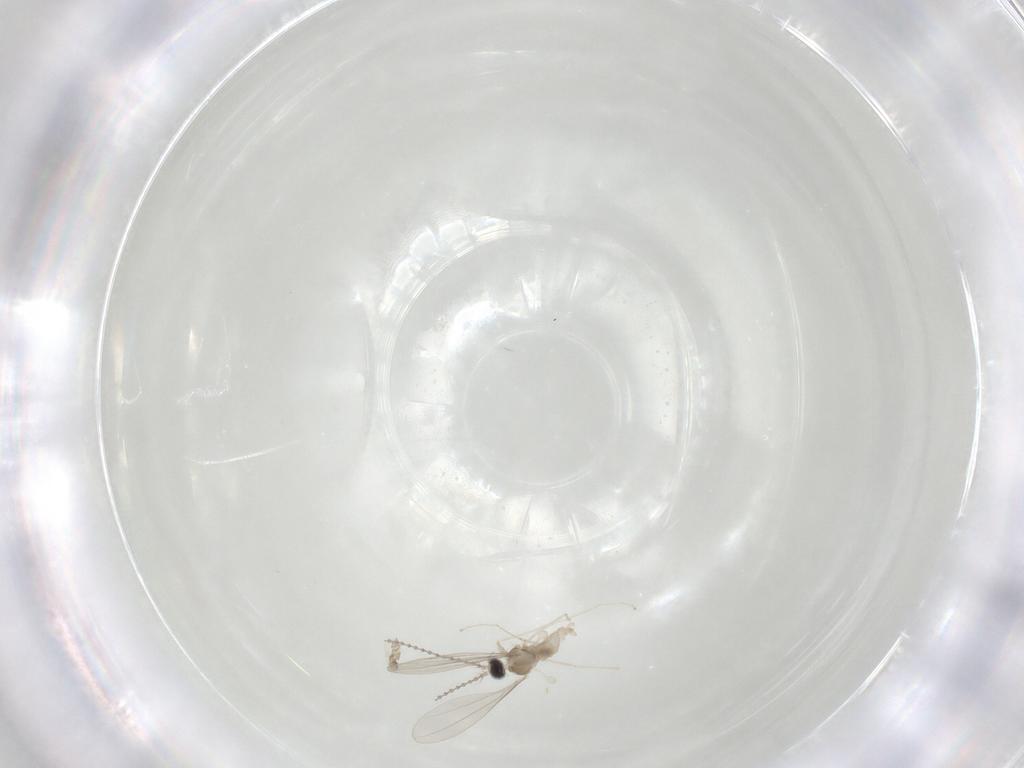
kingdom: Animalia
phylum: Arthropoda
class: Insecta
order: Diptera
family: Cecidomyiidae
